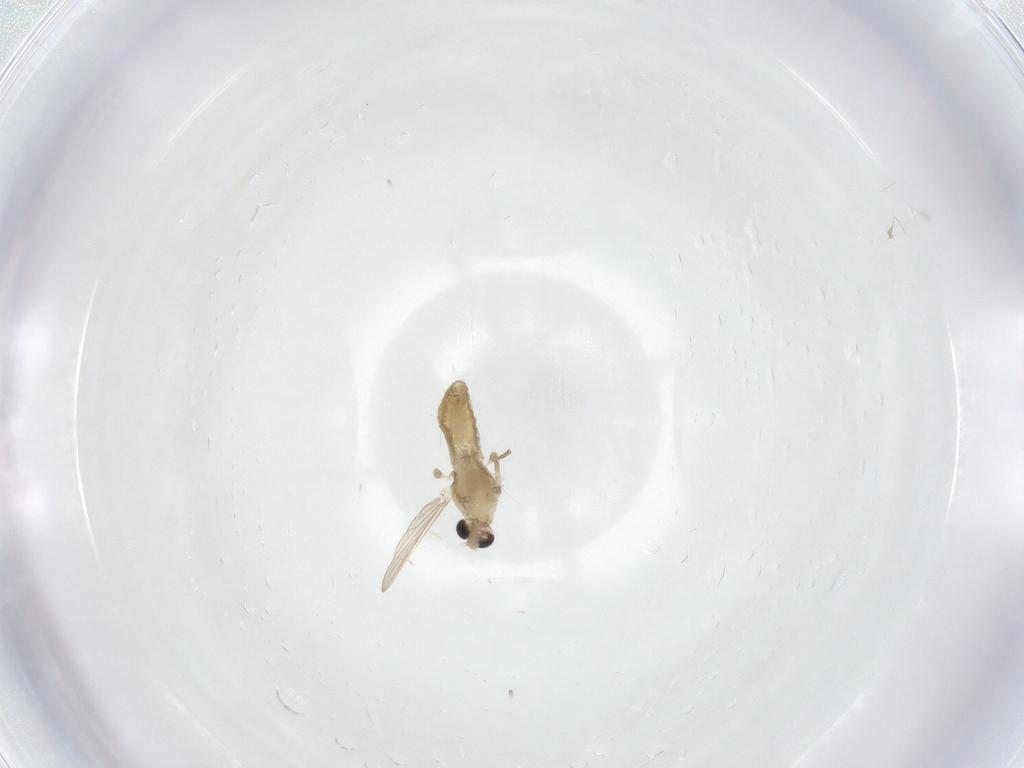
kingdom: Animalia
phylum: Arthropoda
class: Insecta
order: Diptera
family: Chironomidae
